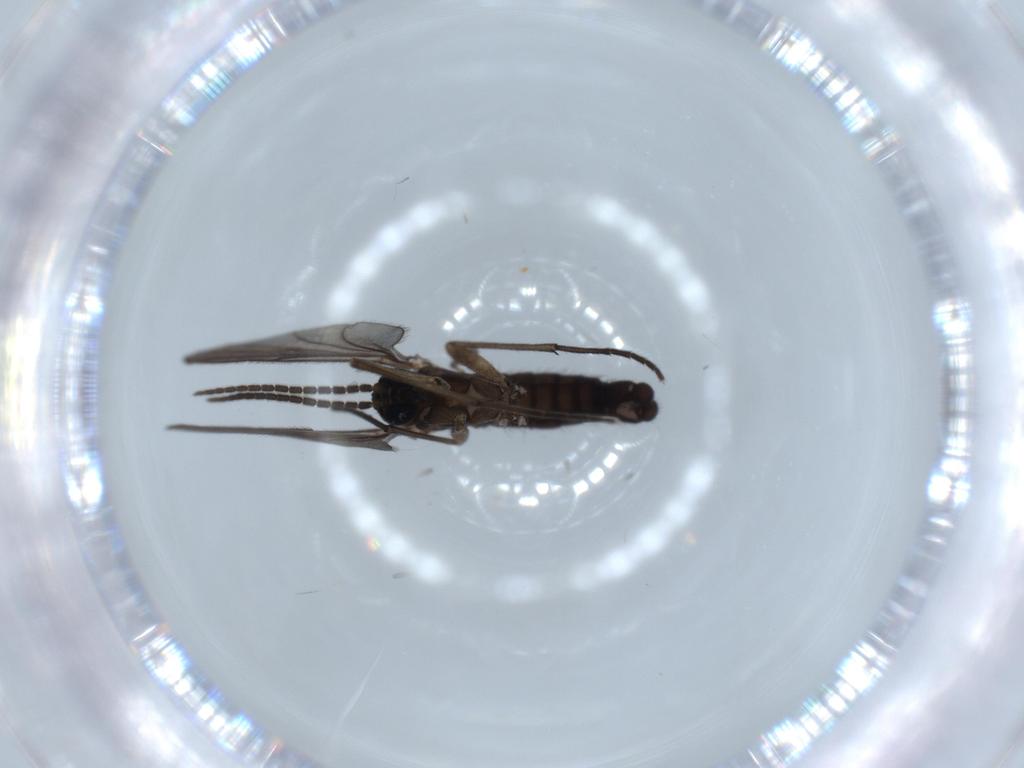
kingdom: Animalia
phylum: Arthropoda
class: Insecta
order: Diptera
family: Sciaridae
